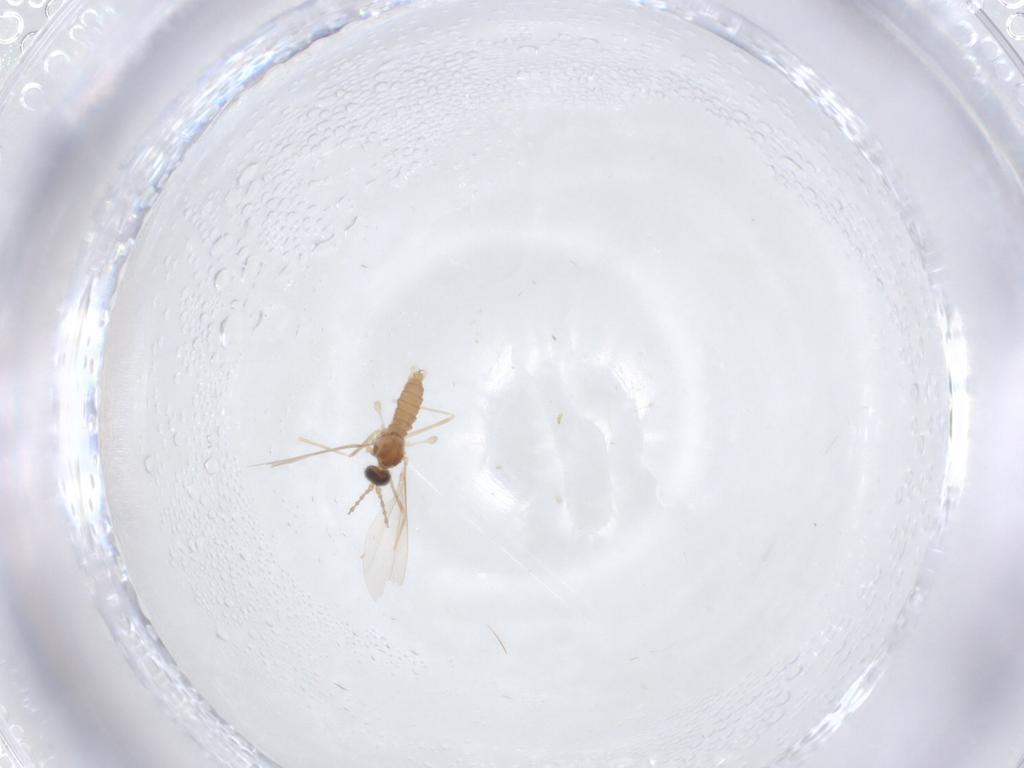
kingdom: Animalia
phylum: Arthropoda
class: Insecta
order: Diptera
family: Cecidomyiidae
